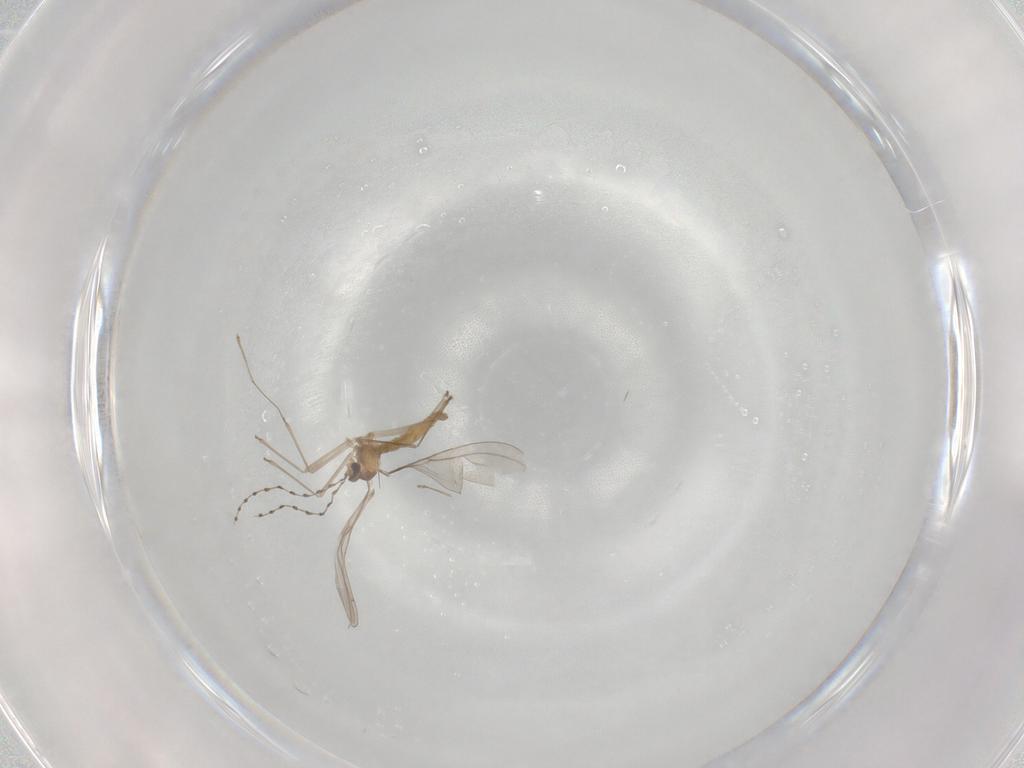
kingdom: Animalia
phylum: Arthropoda
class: Insecta
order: Diptera
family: Cecidomyiidae
